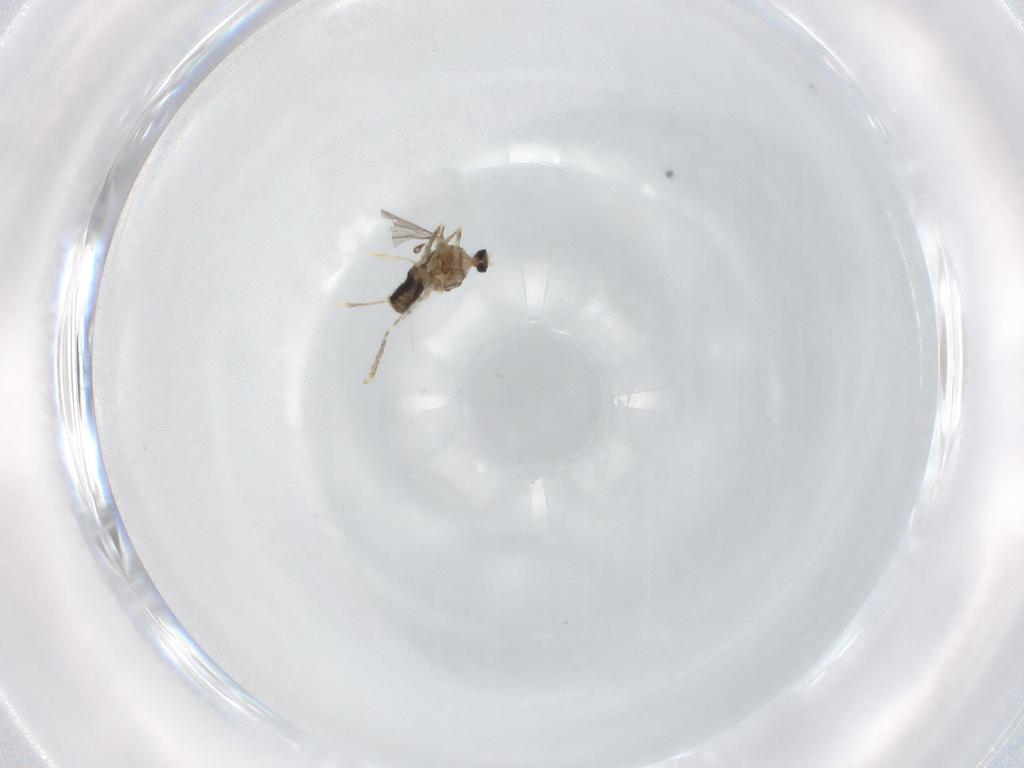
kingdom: Animalia
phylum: Arthropoda
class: Insecta
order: Diptera
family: Cecidomyiidae
